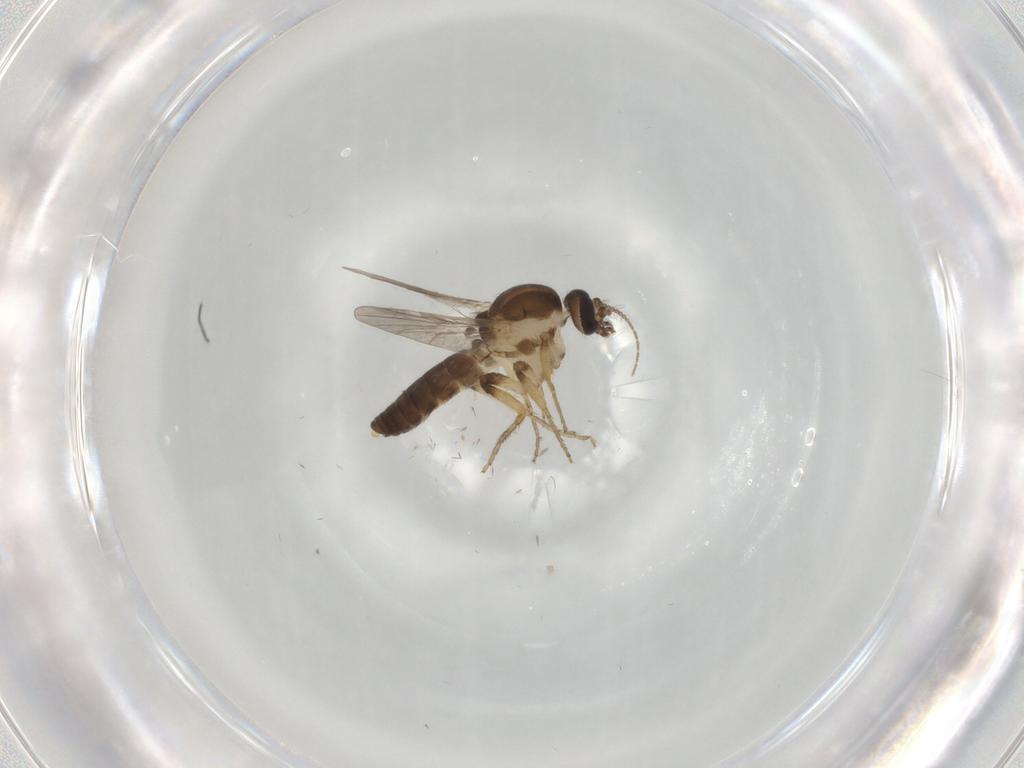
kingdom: Animalia
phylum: Arthropoda
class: Insecta
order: Diptera
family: Ceratopogonidae
